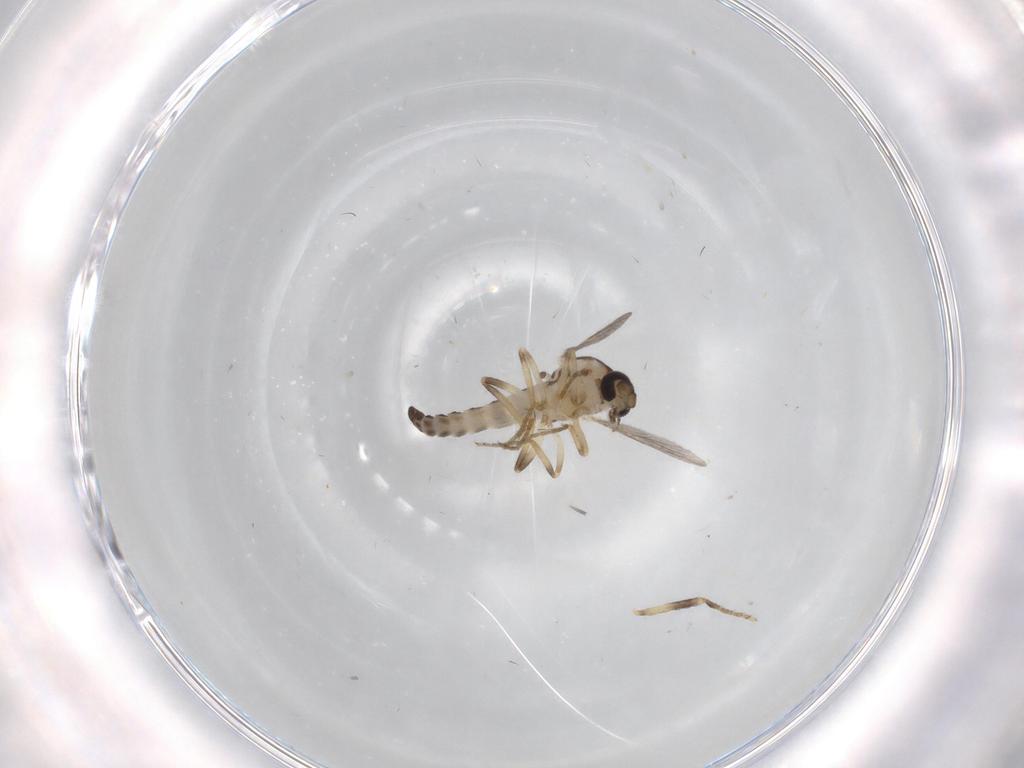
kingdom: Animalia
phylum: Arthropoda
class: Insecta
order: Diptera
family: Ceratopogonidae
